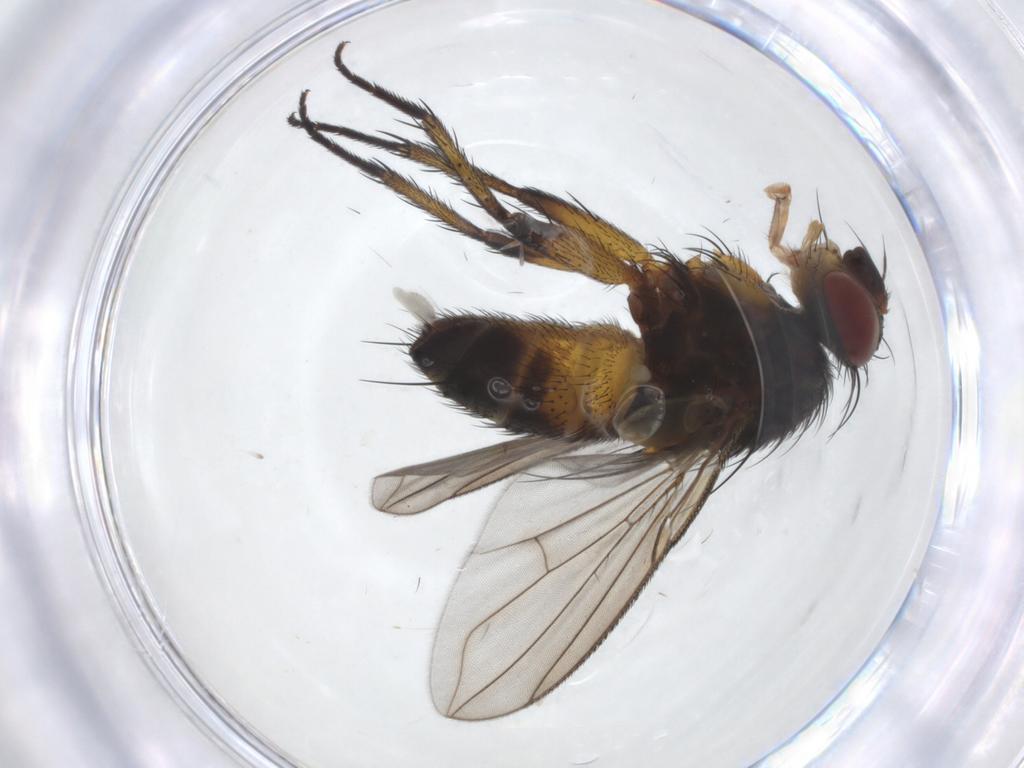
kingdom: Animalia
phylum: Arthropoda
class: Insecta
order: Diptera
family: Tachinidae
